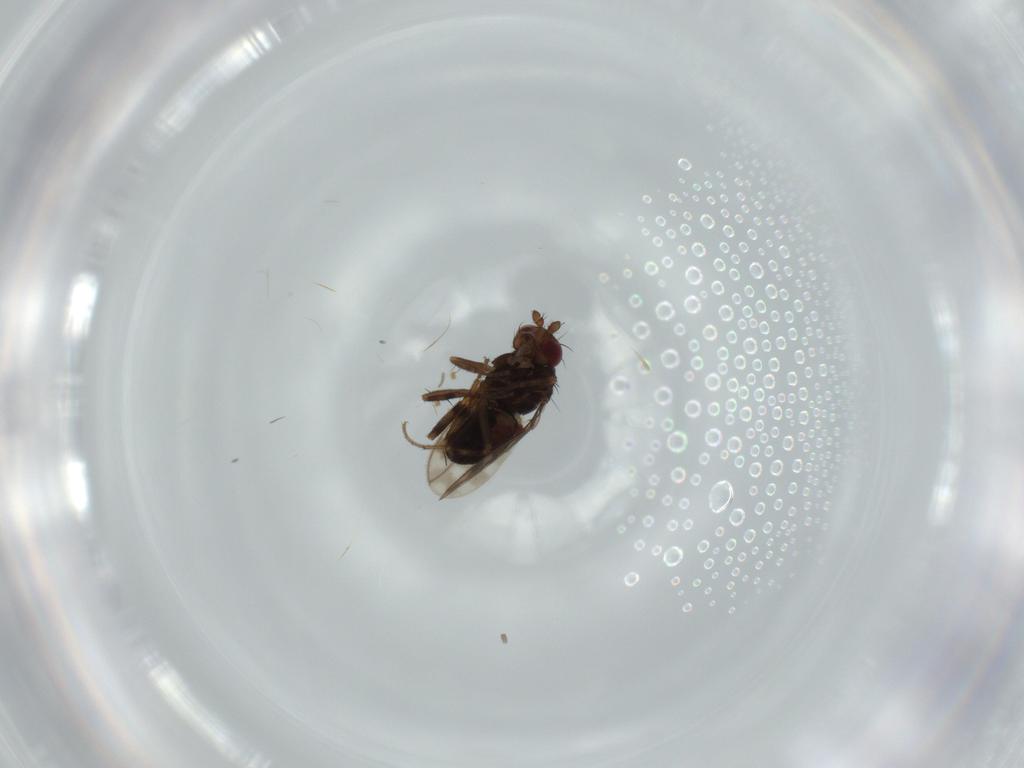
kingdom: Animalia
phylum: Arthropoda
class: Insecta
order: Diptera
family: Sphaeroceridae
